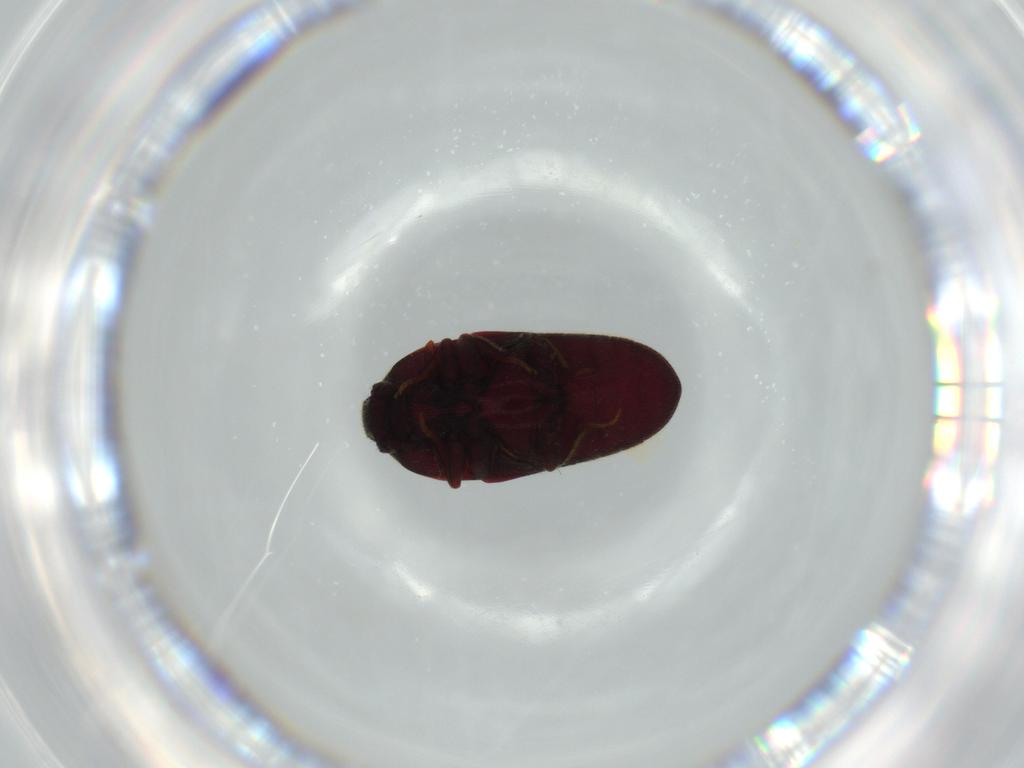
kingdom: Animalia
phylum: Arthropoda
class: Insecta
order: Coleoptera
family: Throscidae
